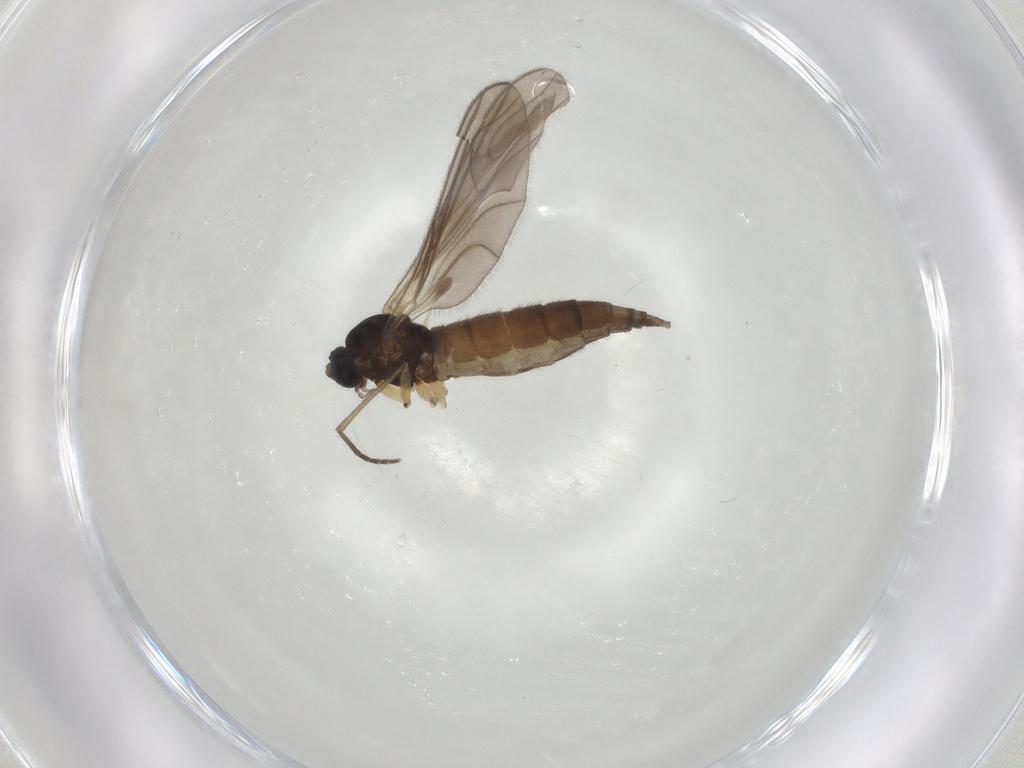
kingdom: Animalia
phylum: Arthropoda
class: Insecta
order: Diptera
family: Sciaridae
